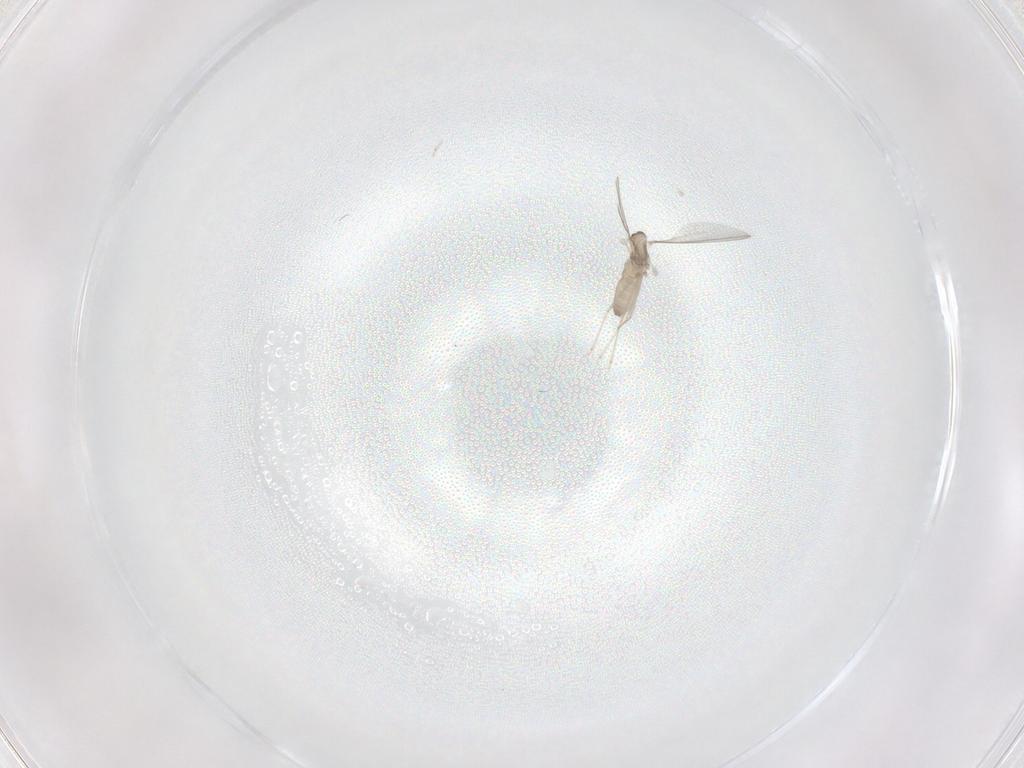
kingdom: Animalia
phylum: Arthropoda
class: Insecta
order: Diptera
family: Cecidomyiidae
